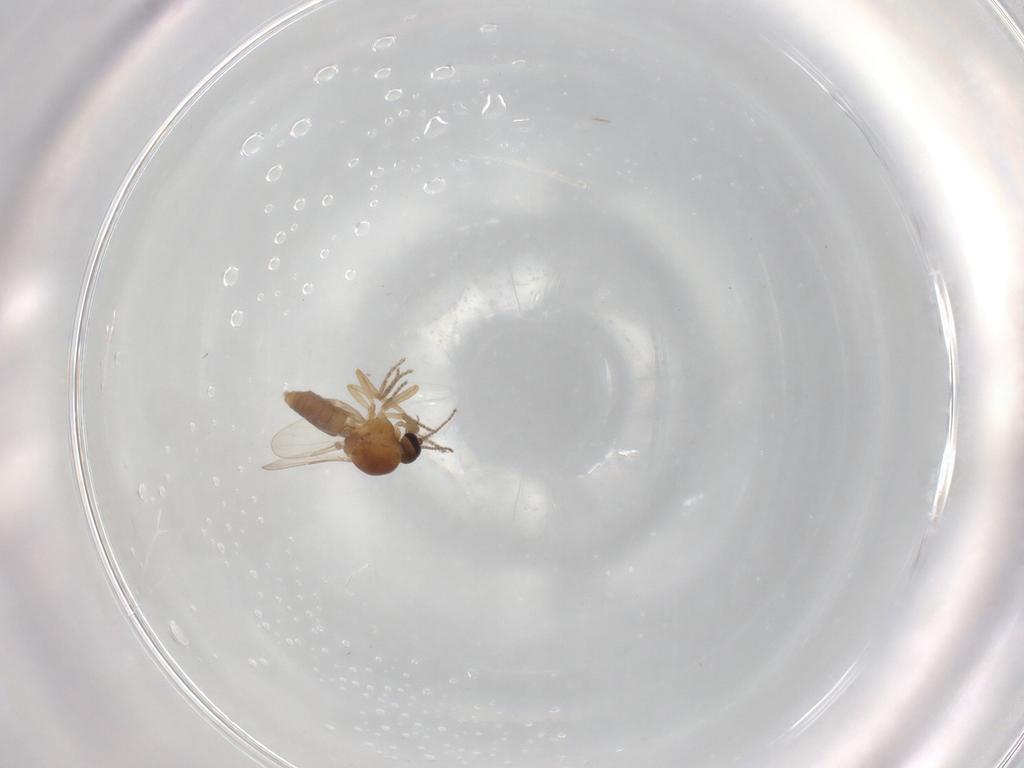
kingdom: Animalia
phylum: Arthropoda
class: Insecta
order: Diptera
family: Ceratopogonidae
